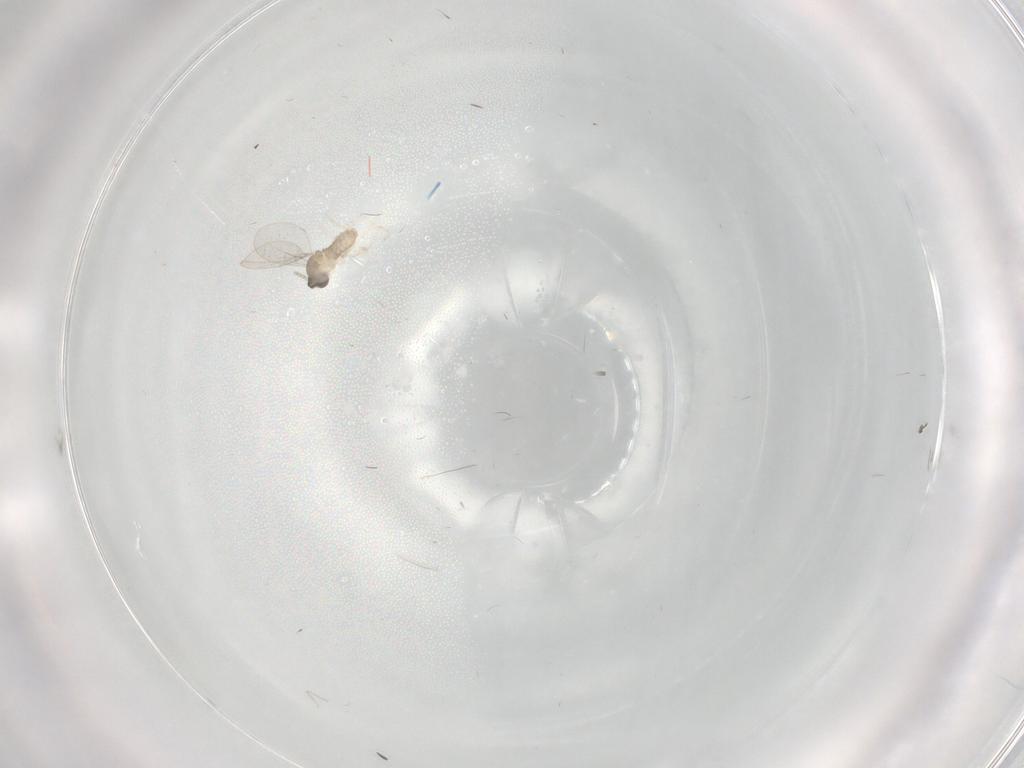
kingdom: Animalia
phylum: Arthropoda
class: Insecta
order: Diptera
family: Cecidomyiidae
